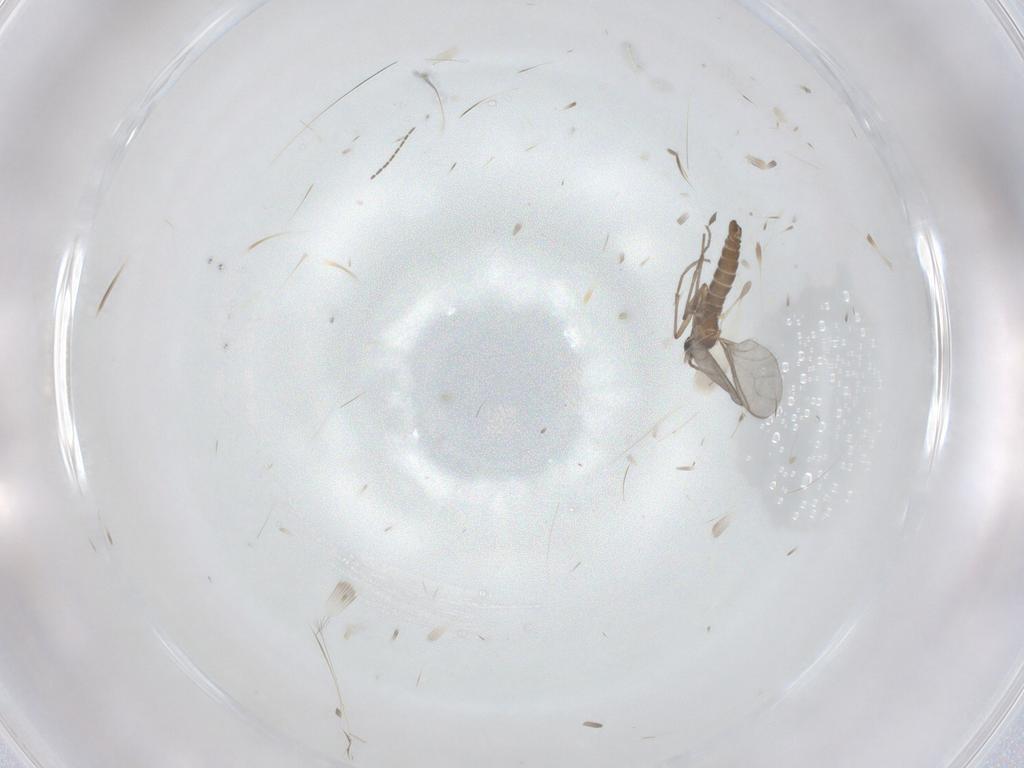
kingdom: Animalia
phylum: Arthropoda
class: Insecta
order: Diptera
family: Sciaridae
